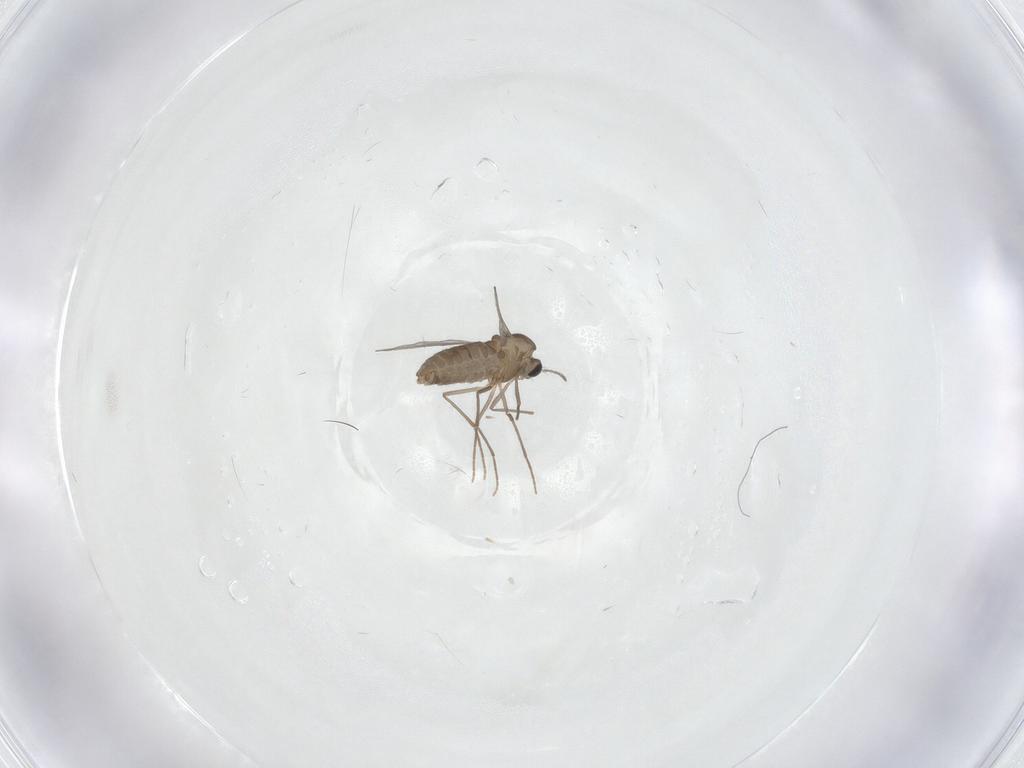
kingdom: Animalia
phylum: Arthropoda
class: Insecta
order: Diptera
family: Chironomidae
